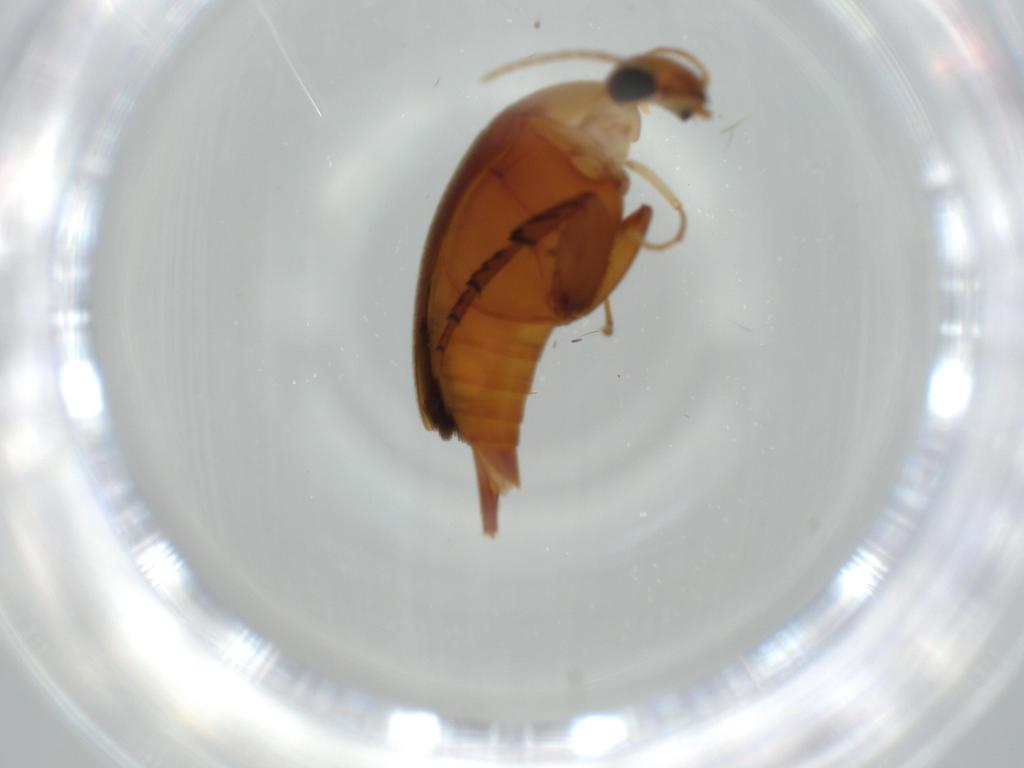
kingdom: Animalia
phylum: Arthropoda
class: Insecta
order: Coleoptera
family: Mordellidae
